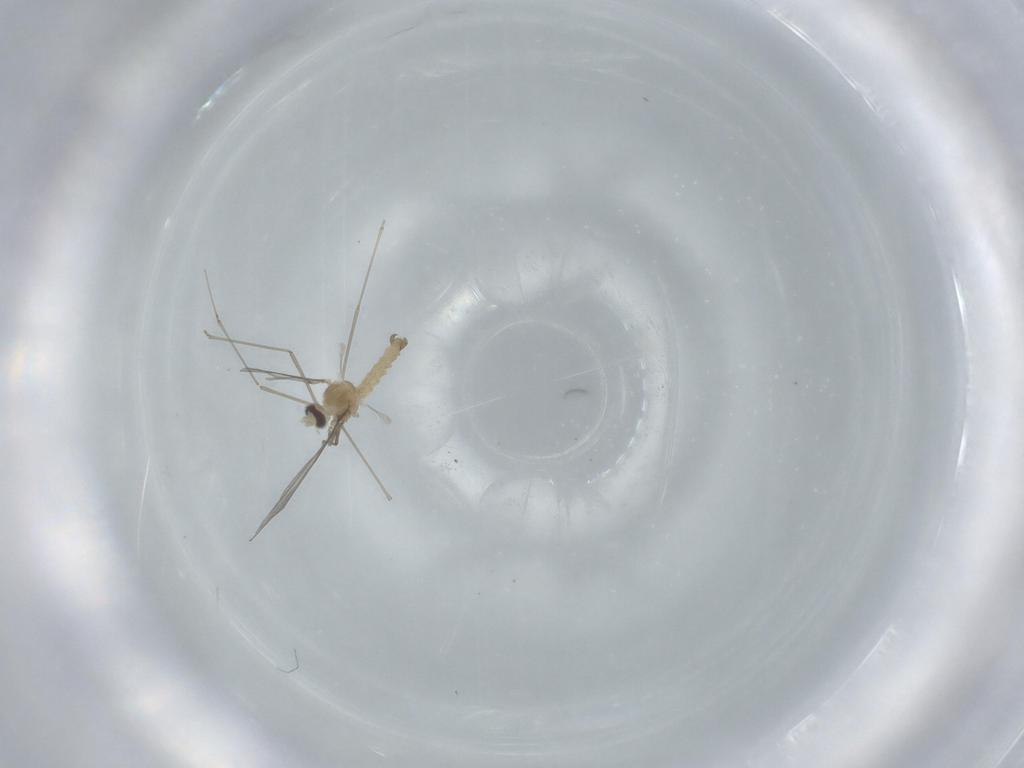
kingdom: Animalia
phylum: Arthropoda
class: Insecta
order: Diptera
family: Cecidomyiidae
